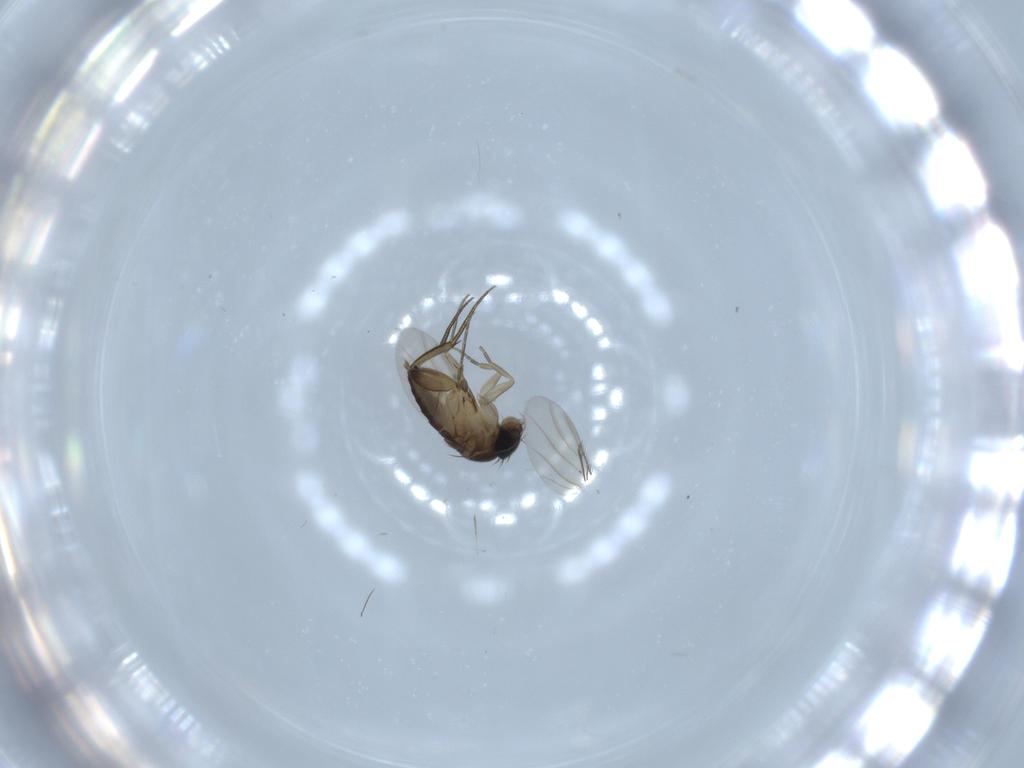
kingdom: Animalia
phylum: Arthropoda
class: Insecta
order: Diptera
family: Phoridae
